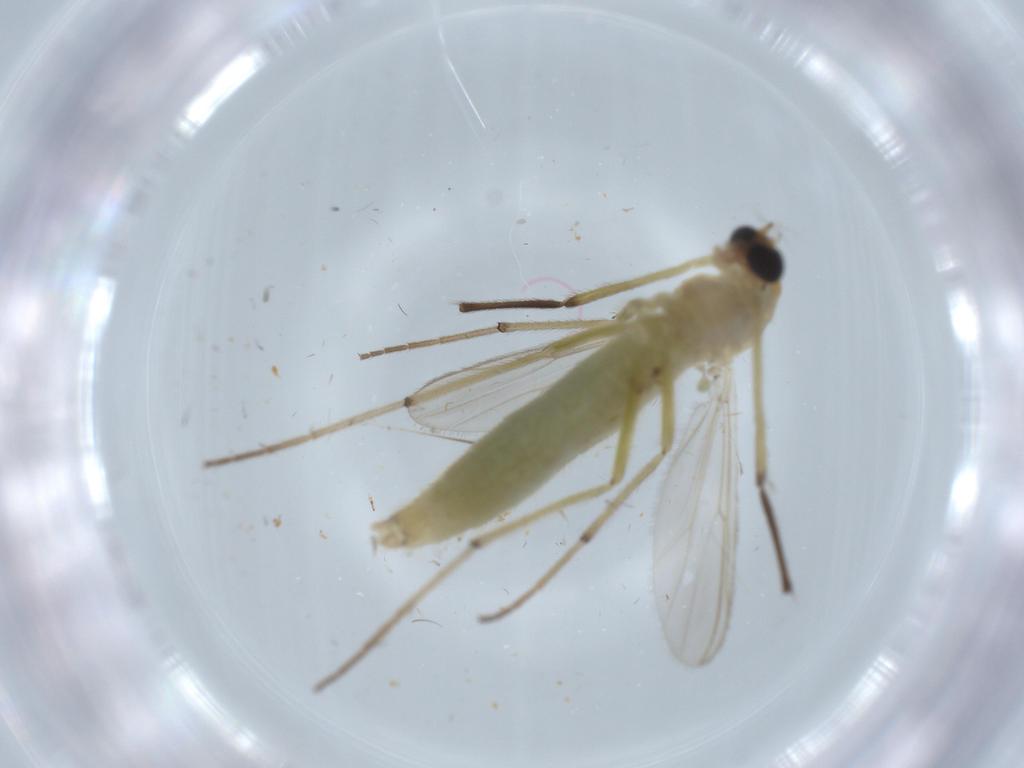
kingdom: Animalia
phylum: Arthropoda
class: Insecta
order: Diptera
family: Chironomidae
